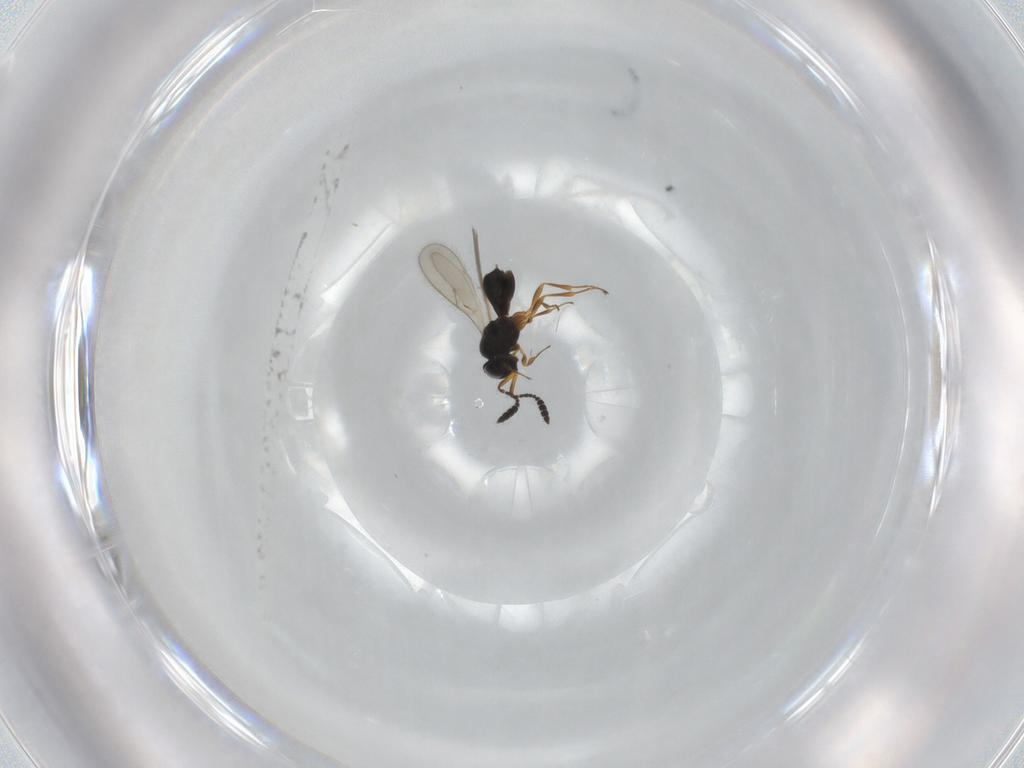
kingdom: Animalia
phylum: Arthropoda
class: Insecta
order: Hymenoptera
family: Scelionidae
